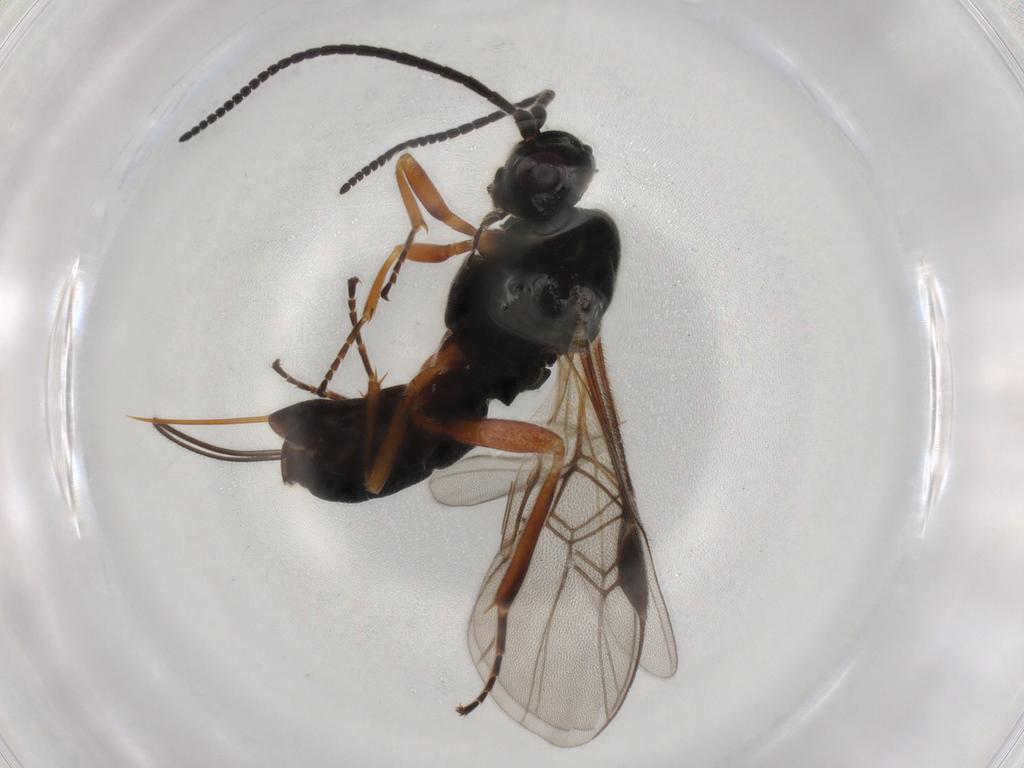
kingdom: Animalia
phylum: Arthropoda
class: Insecta
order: Hymenoptera
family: Braconidae
